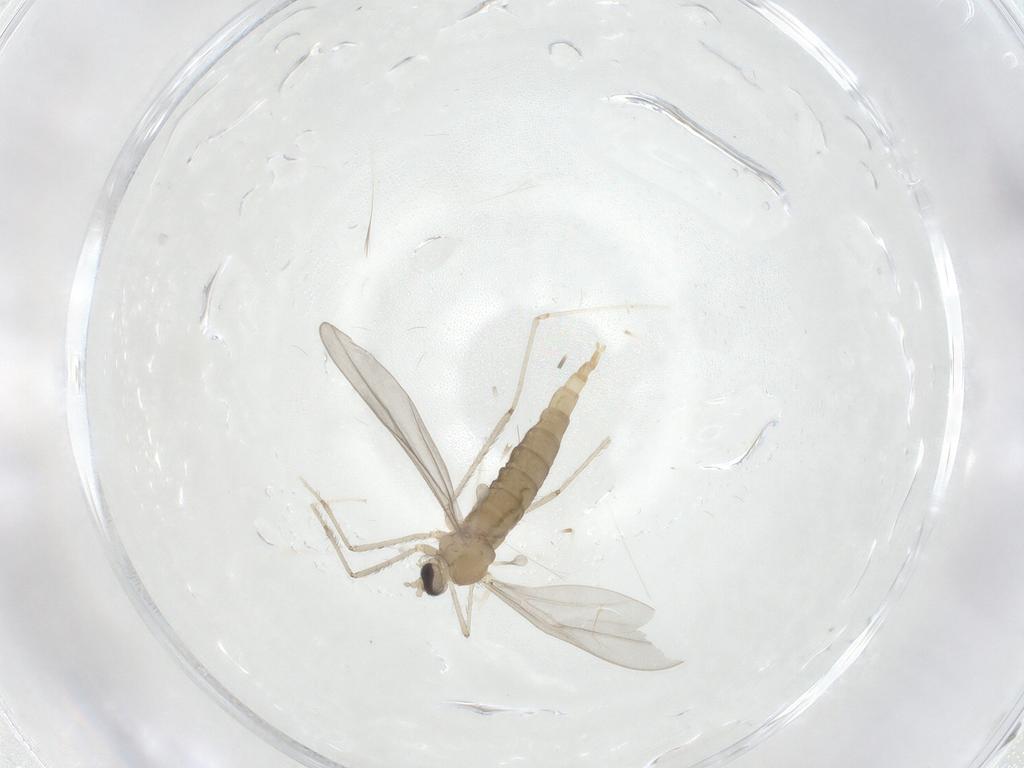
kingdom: Animalia
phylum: Arthropoda
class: Insecta
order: Diptera
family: Cecidomyiidae
